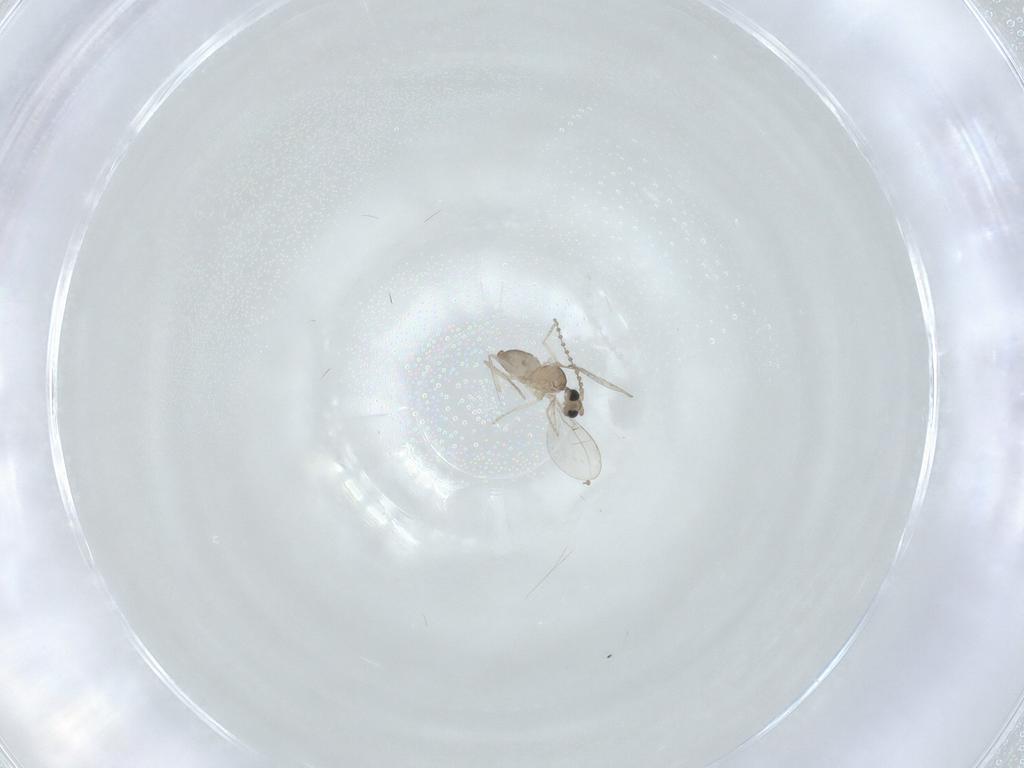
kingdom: Animalia
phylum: Arthropoda
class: Insecta
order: Diptera
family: Cecidomyiidae
